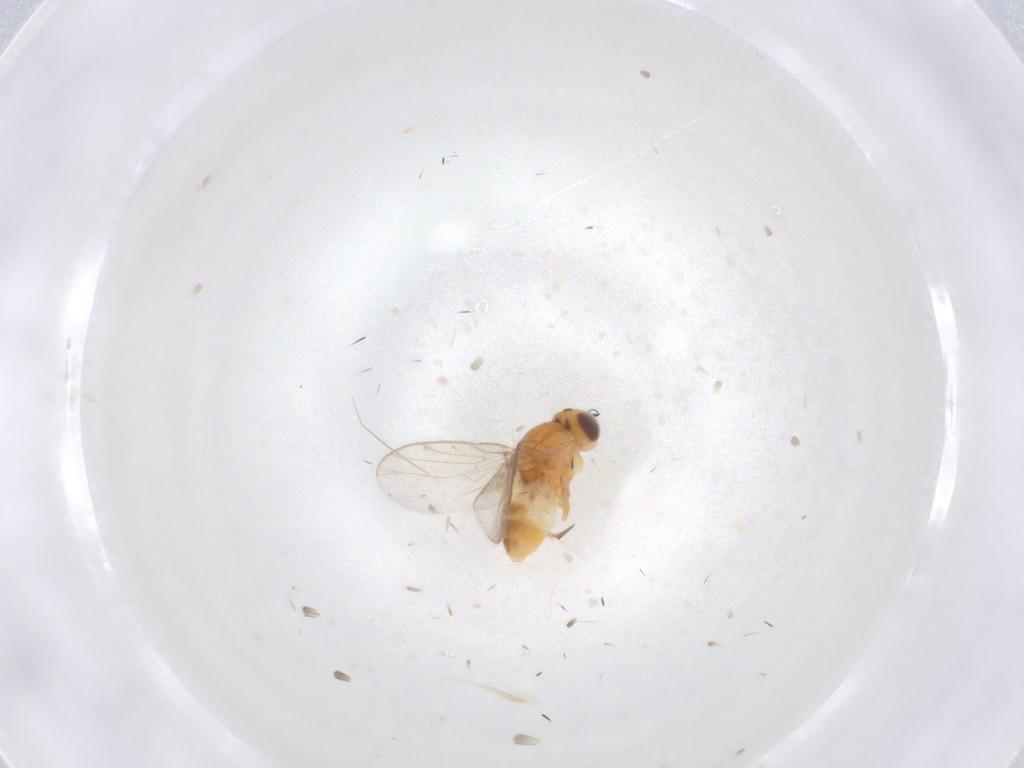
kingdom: Animalia
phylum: Arthropoda
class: Insecta
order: Diptera
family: Chloropidae
